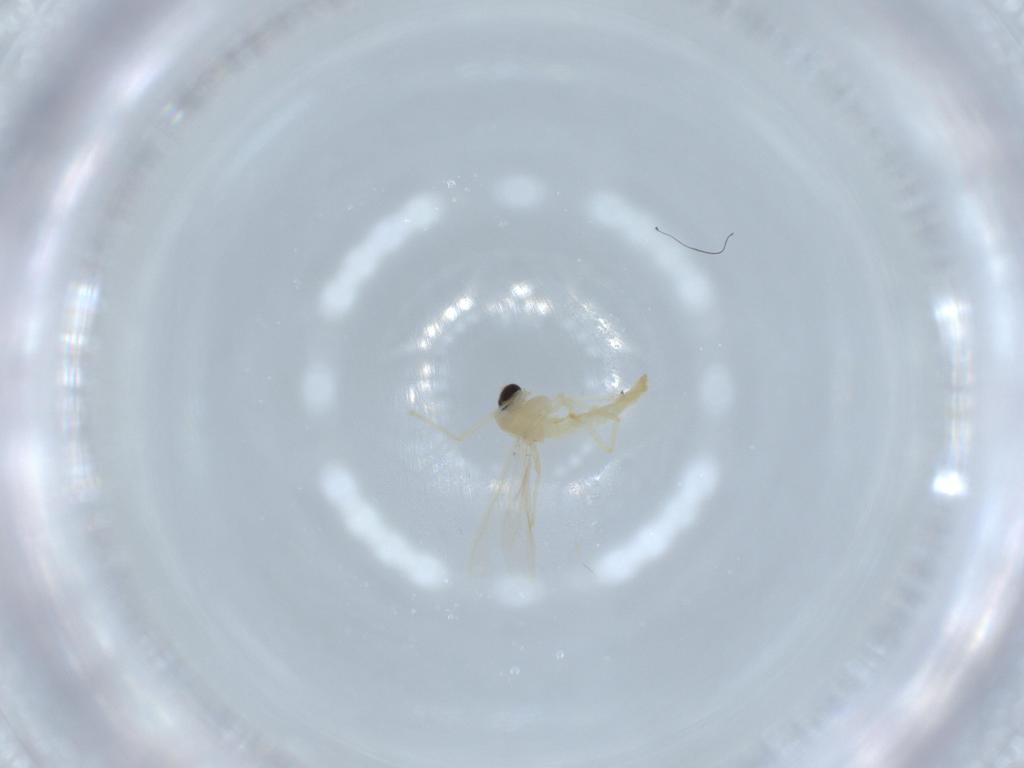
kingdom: Animalia
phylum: Arthropoda
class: Insecta
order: Diptera
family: Cecidomyiidae
